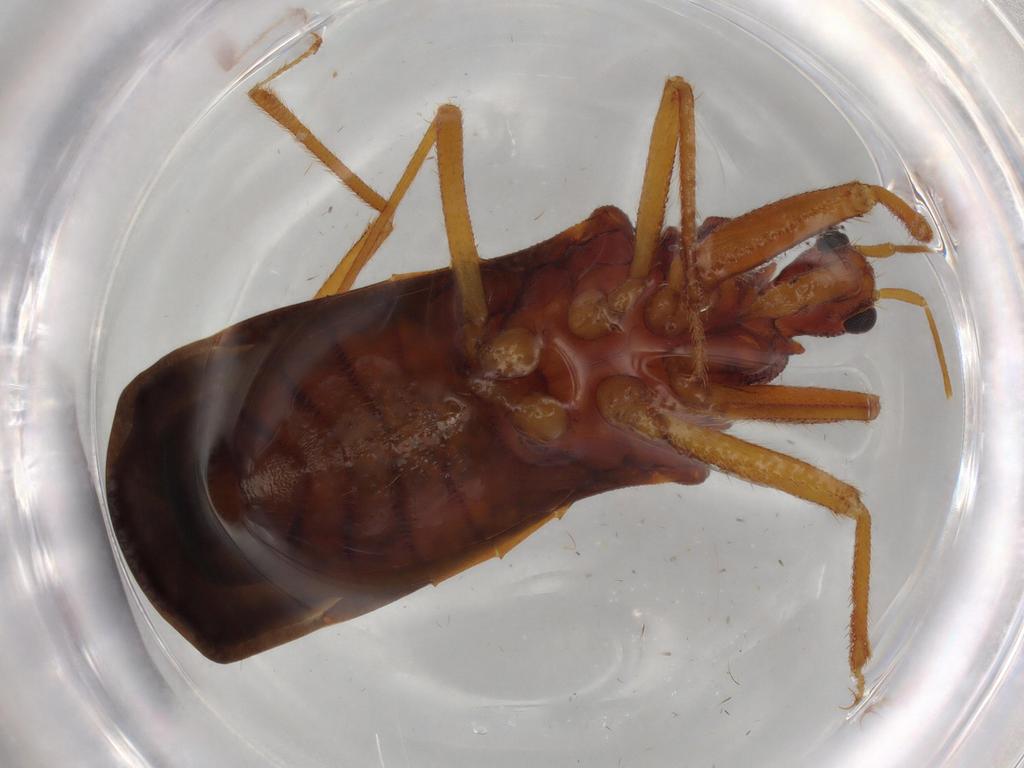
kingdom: Animalia
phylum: Arthropoda
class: Insecta
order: Hemiptera
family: Reduviidae
